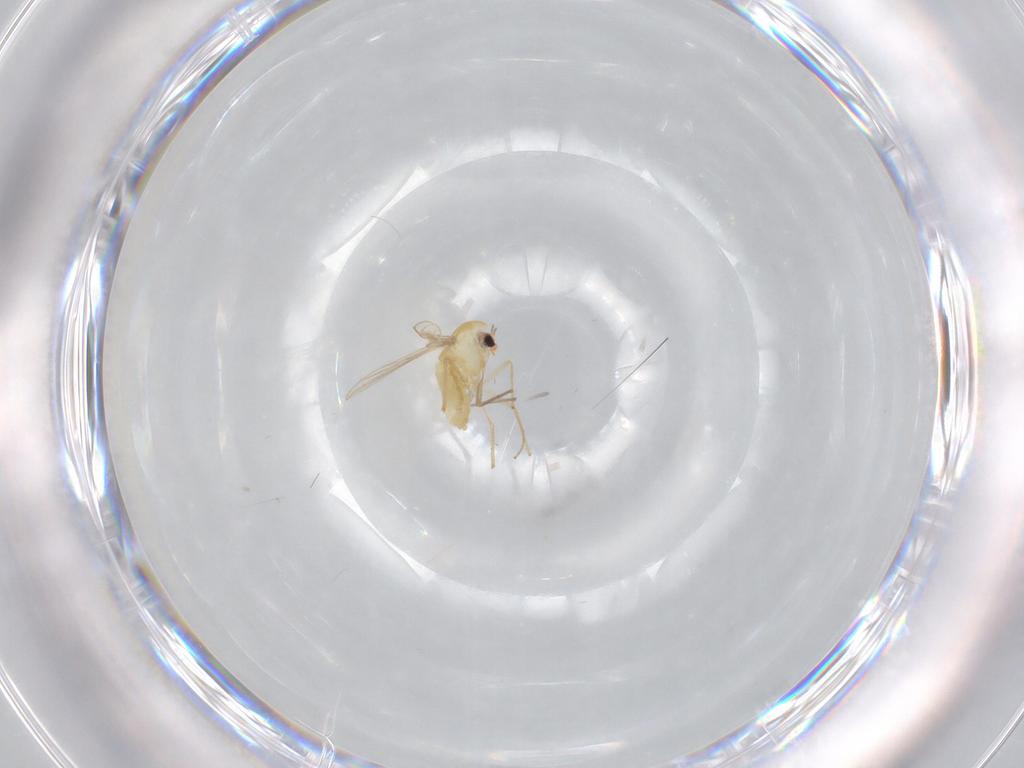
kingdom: Animalia
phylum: Arthropoda
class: Insecta
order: Diptera
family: Chironomidae
